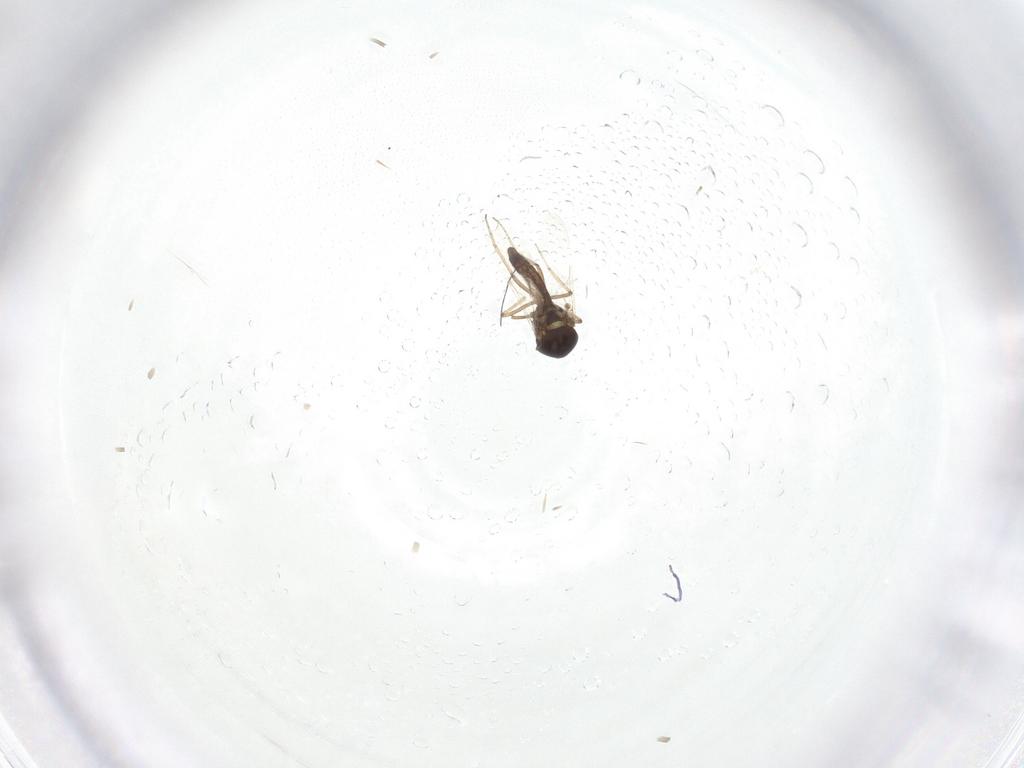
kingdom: Animalia
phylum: Arthropoda
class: Insecta
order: Diptera
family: Ceratopogonidae
